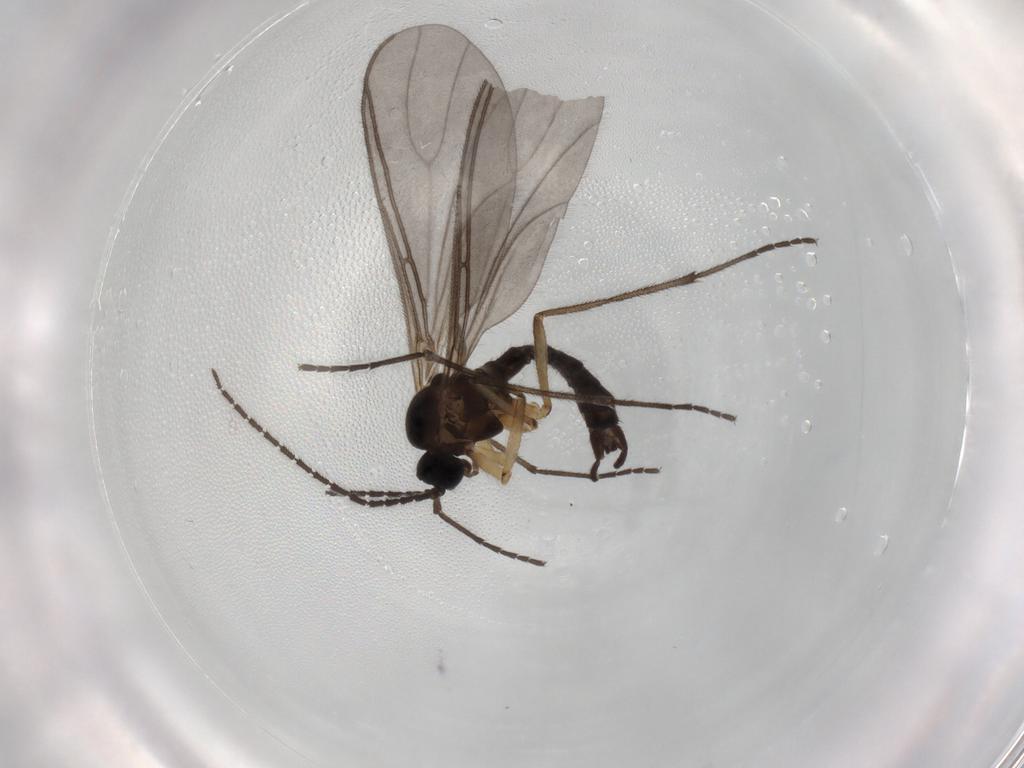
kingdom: Animalia
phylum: Arthropoda
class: Insecta
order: Diptera
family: Sciaridae
